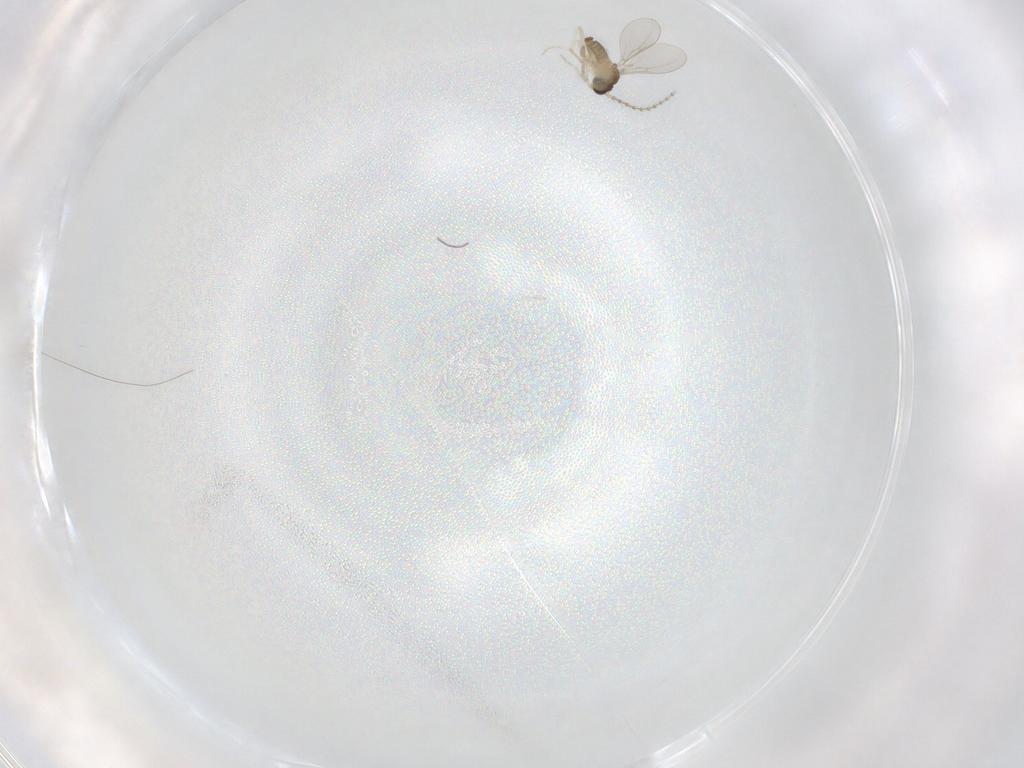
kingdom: Animalia
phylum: Arthropoda
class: Insecta
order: Diptera
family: Cecidomyiidae
